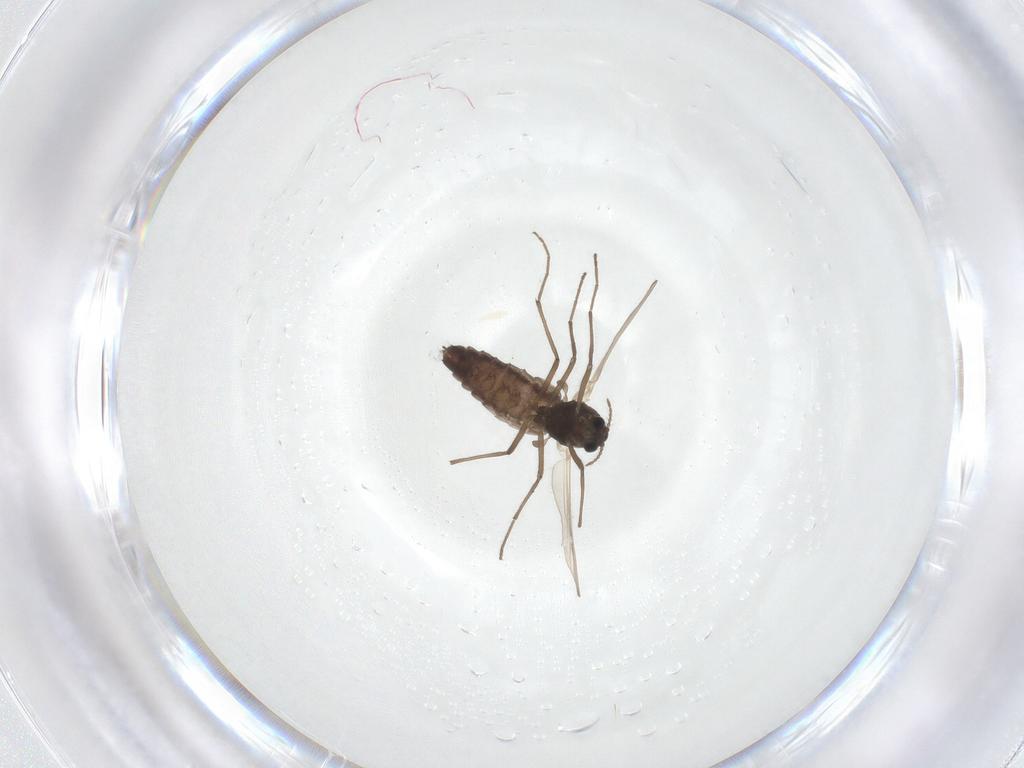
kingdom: Animalia
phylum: Arthropoda
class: Insecta
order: Diptera
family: Chironomidae
